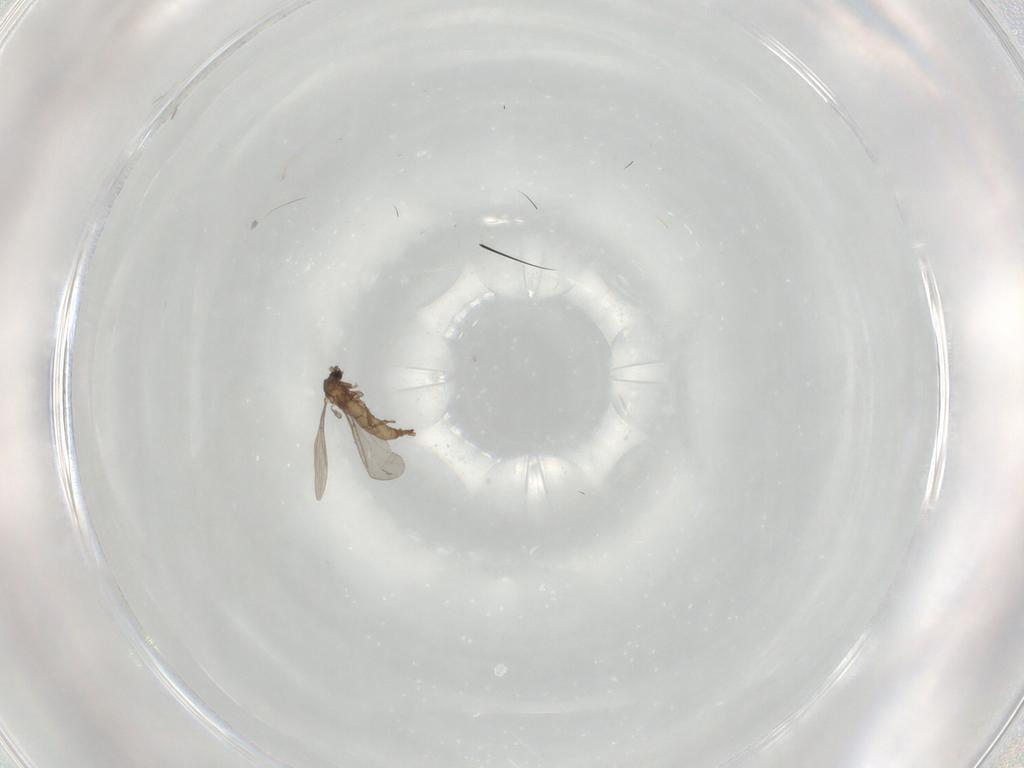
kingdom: Animalia
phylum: Arthropoda
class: Insecta
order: Diptera
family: Sciaridae
